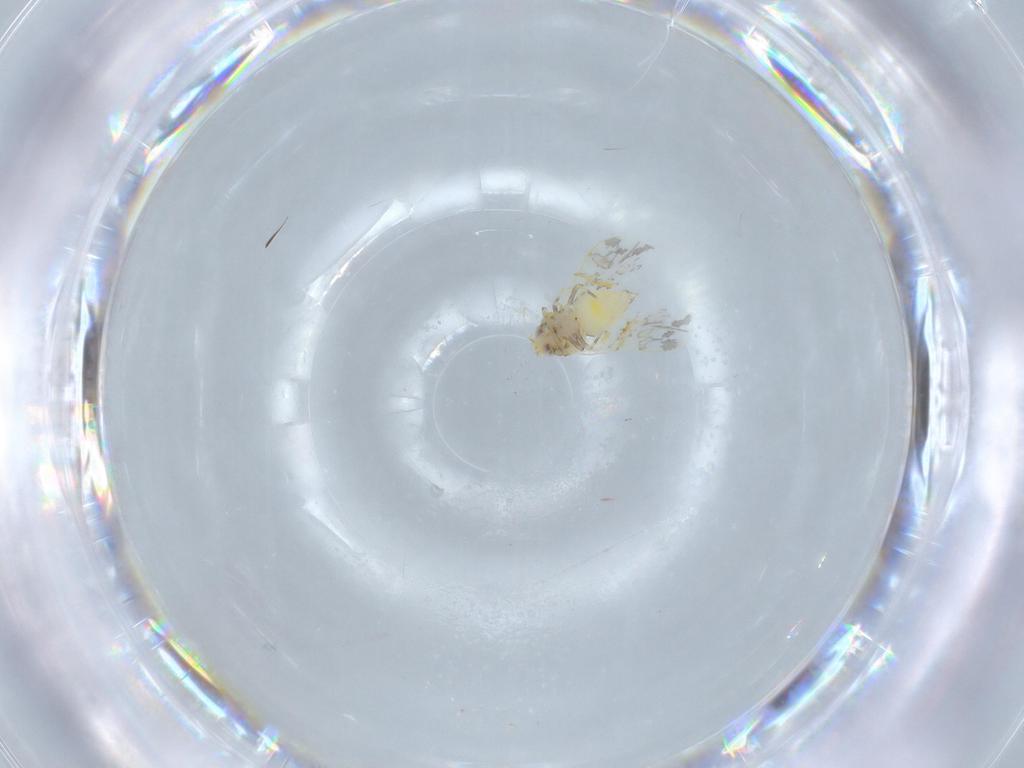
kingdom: Animalia
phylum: Arthropoda
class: Insecta
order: Hemiptera
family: Aleyrodidae
